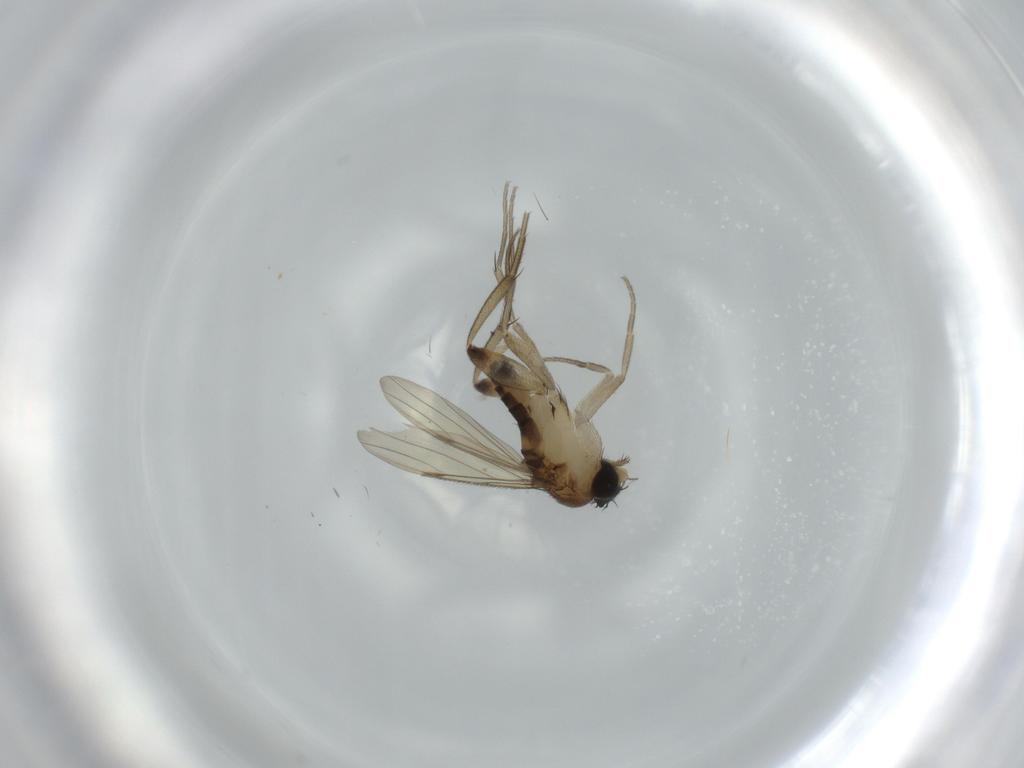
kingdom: Animalia
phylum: Arthropoda
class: Insecta
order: Diptera
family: Phoridae
